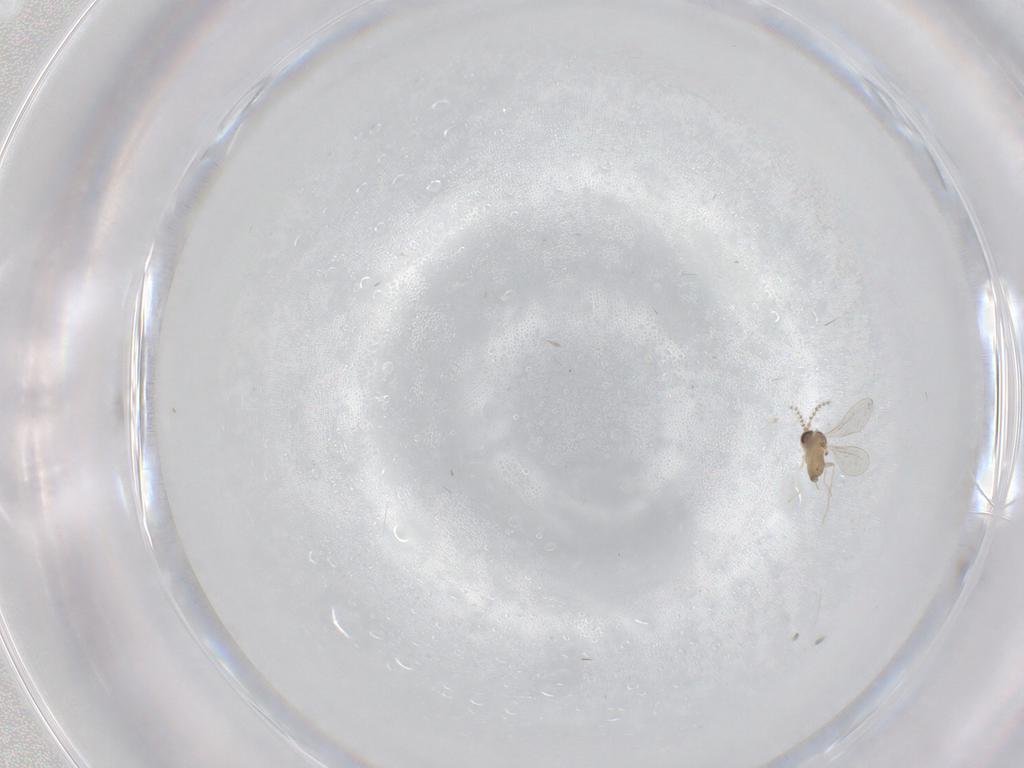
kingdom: Animalia
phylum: Arthropoda
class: Insecta
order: Diptera
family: Cecidomyiidae
